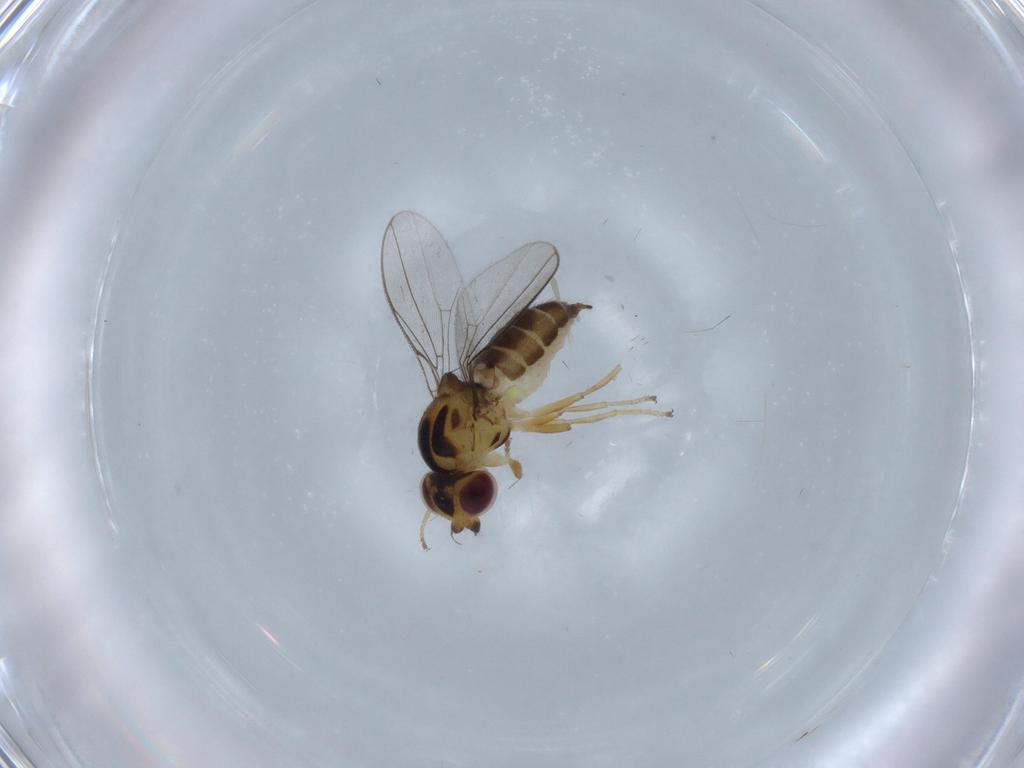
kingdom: Animalia
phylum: Arthropoda
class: Insecta
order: Diptera
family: Chloropidae
